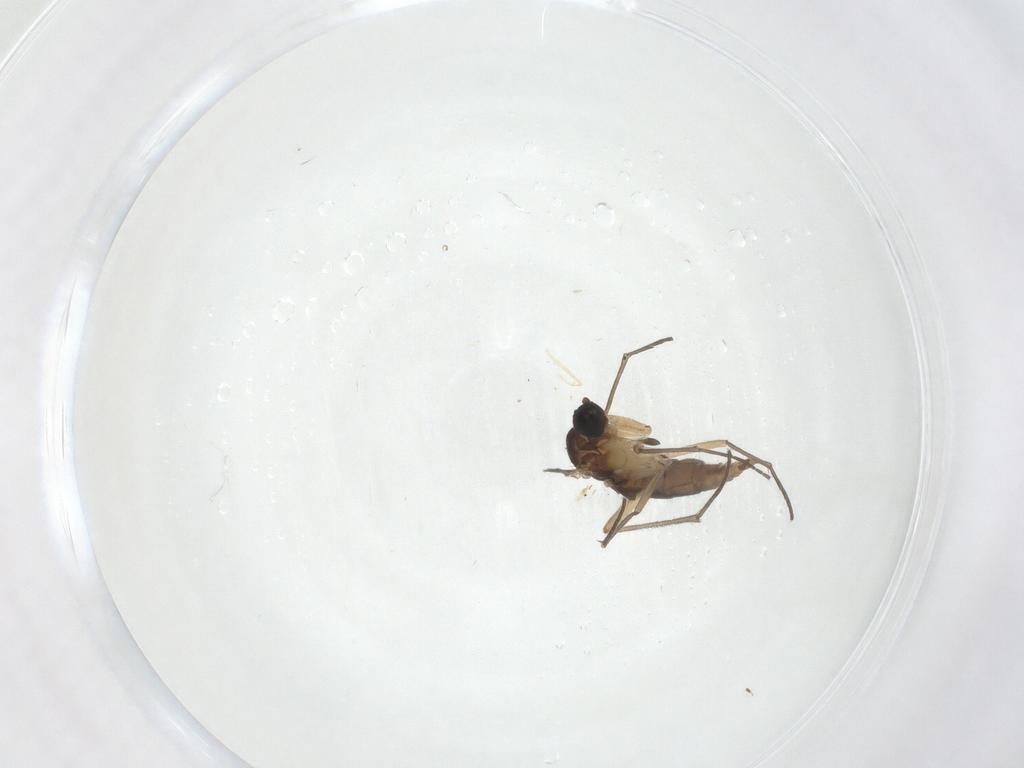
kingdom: Animalia
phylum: Arthropoda
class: Insecta
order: Diptera
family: Sciaridae
